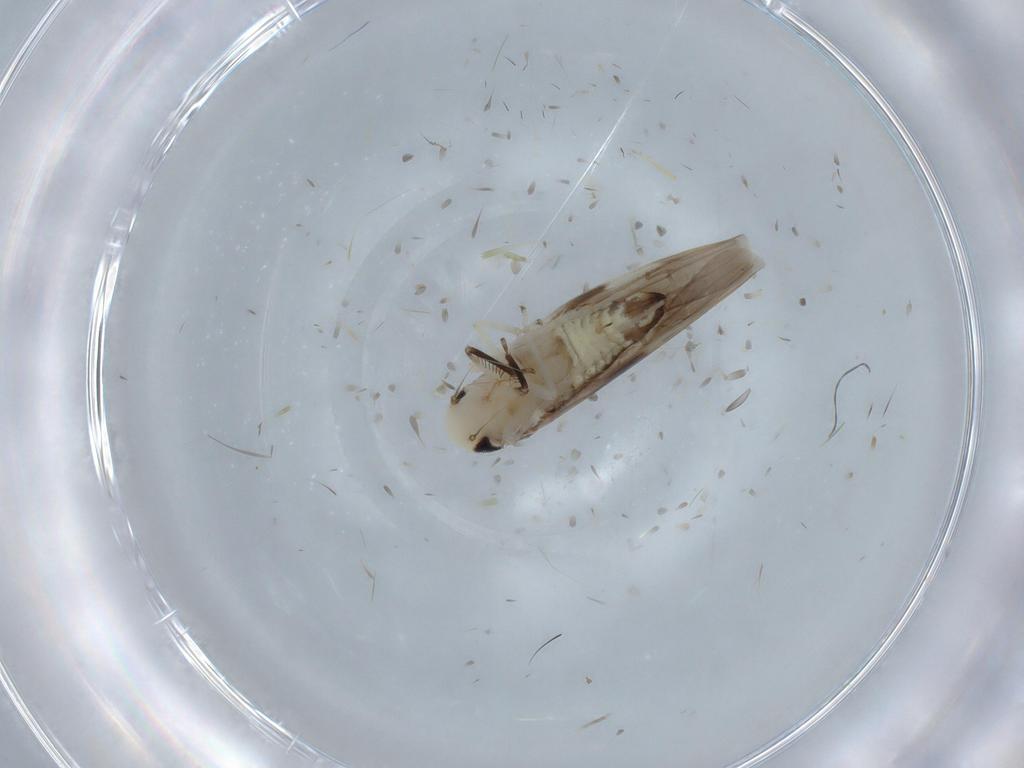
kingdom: Animalia
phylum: Arthropoda
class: Insecta
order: Hemiptera
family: Cicadellidae
